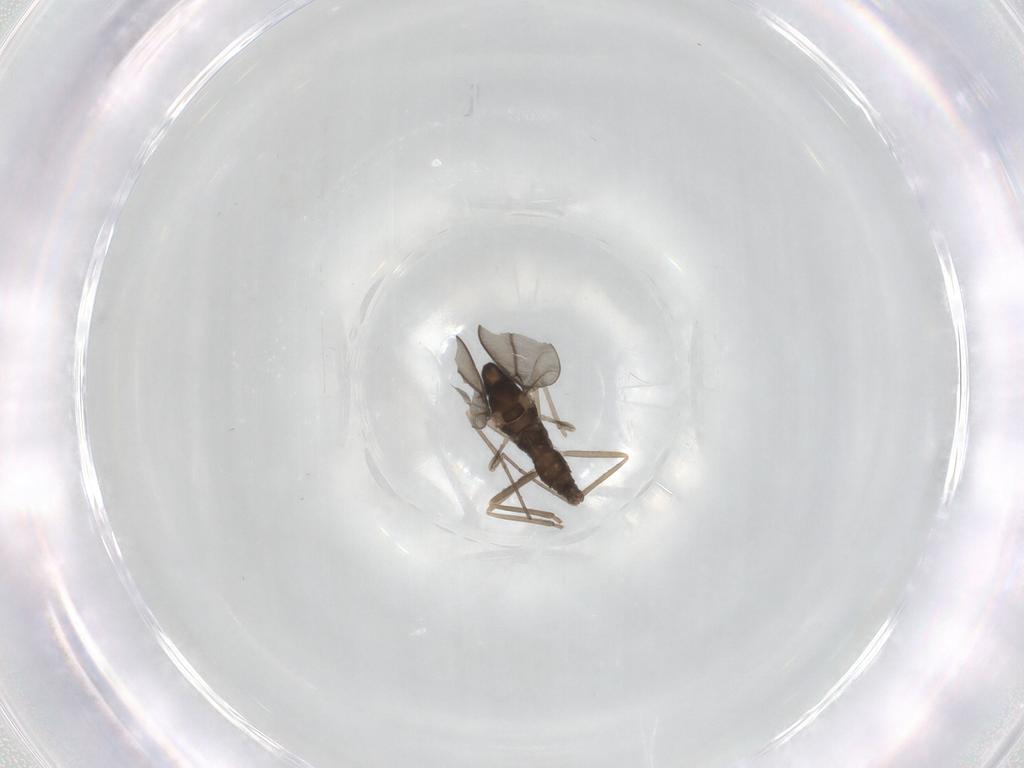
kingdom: Animalia
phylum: Arthropoda
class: Insecta
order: Diptera
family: Cecidomyiidae
